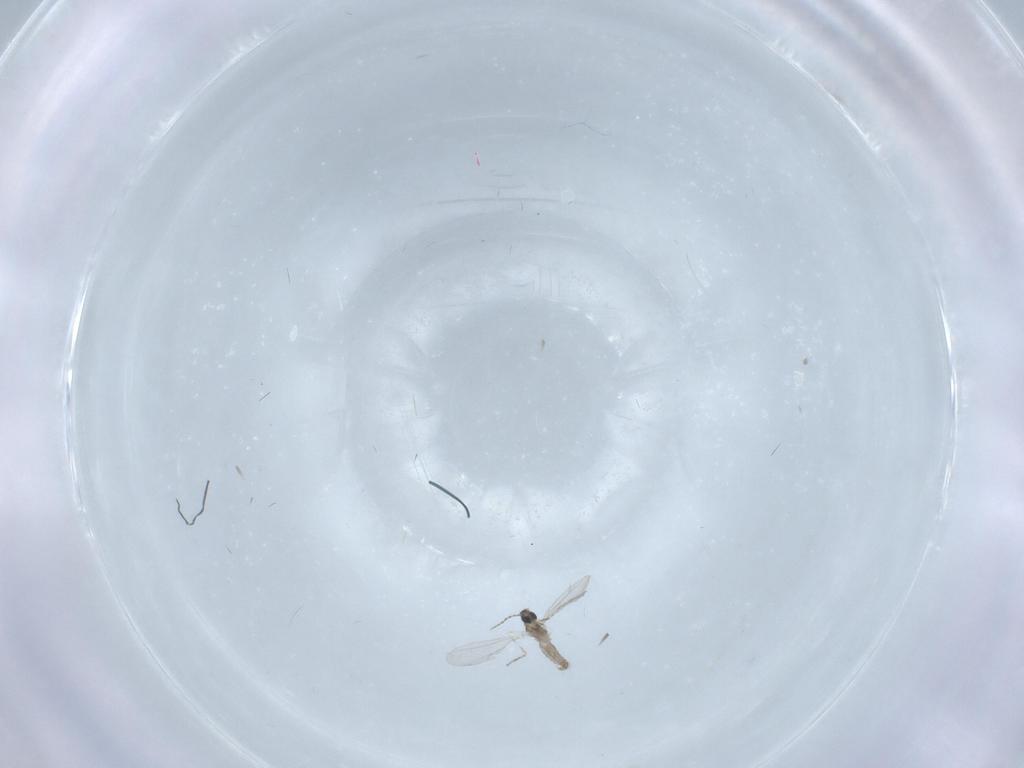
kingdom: Animalia
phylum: Arthropoda
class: Insecta
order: Diptera
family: Cecidomyiidae
